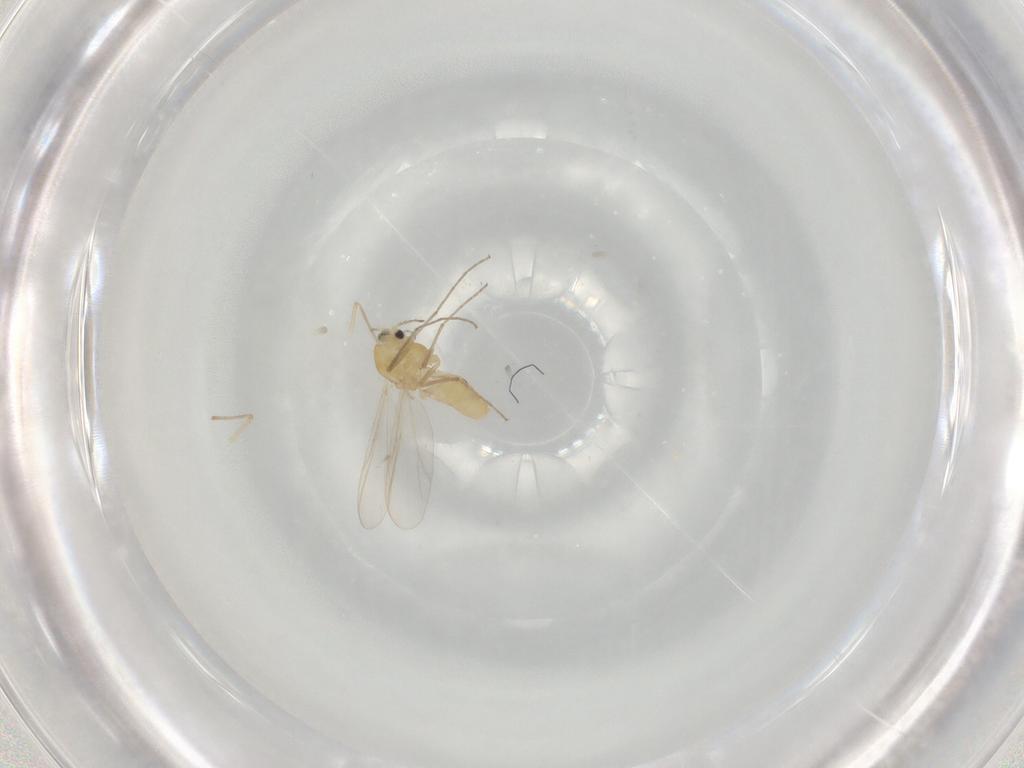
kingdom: Animalia
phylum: Arthropoda
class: Insecta
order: Diptera
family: Chironomidae
